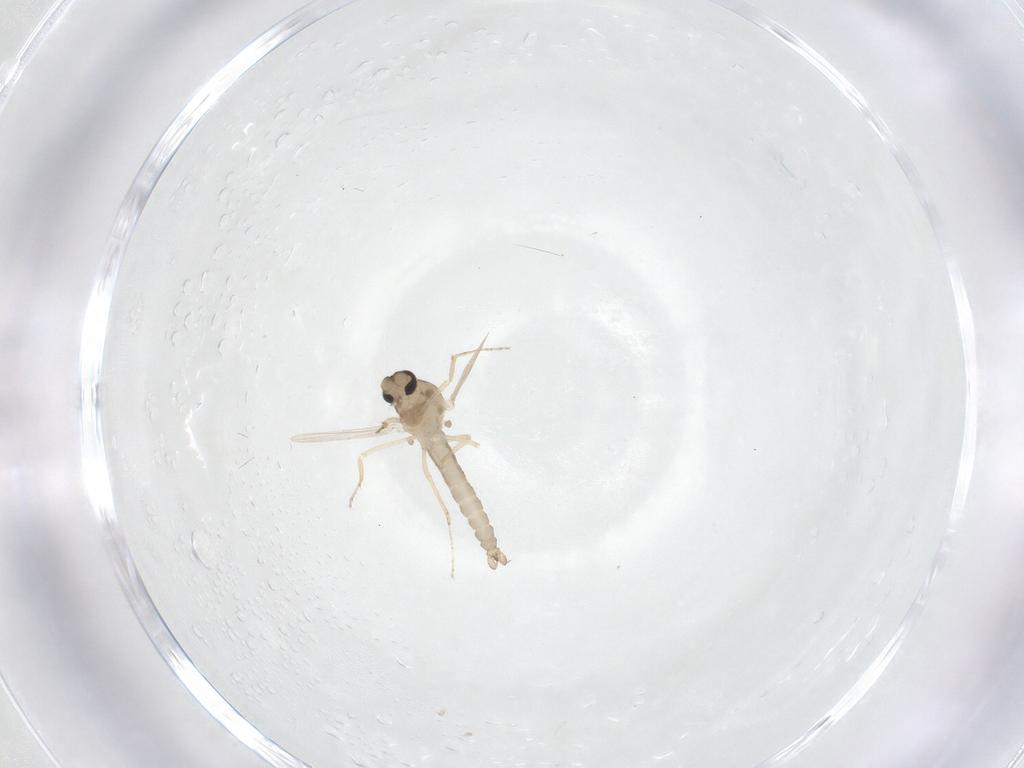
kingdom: Animalia
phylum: Arthropoda
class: Insecta
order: Diptera
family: Ceratopogonidae
